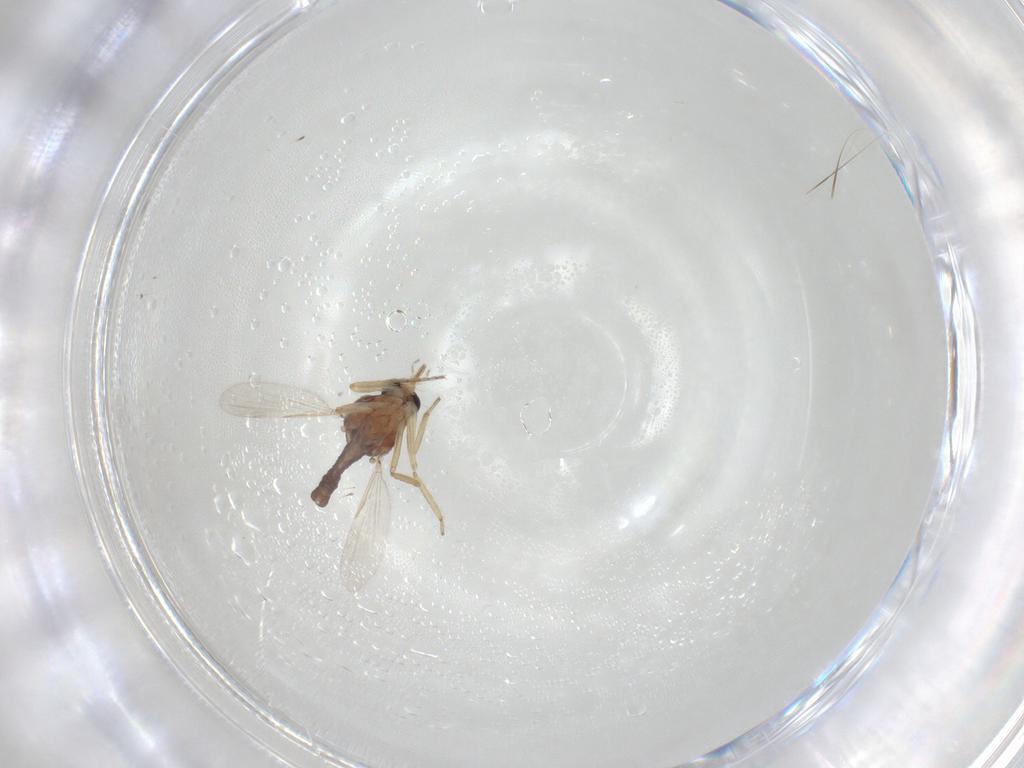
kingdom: Animalia
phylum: Arthropoda
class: Insecta
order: Diptera
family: Ceratopogonidae
